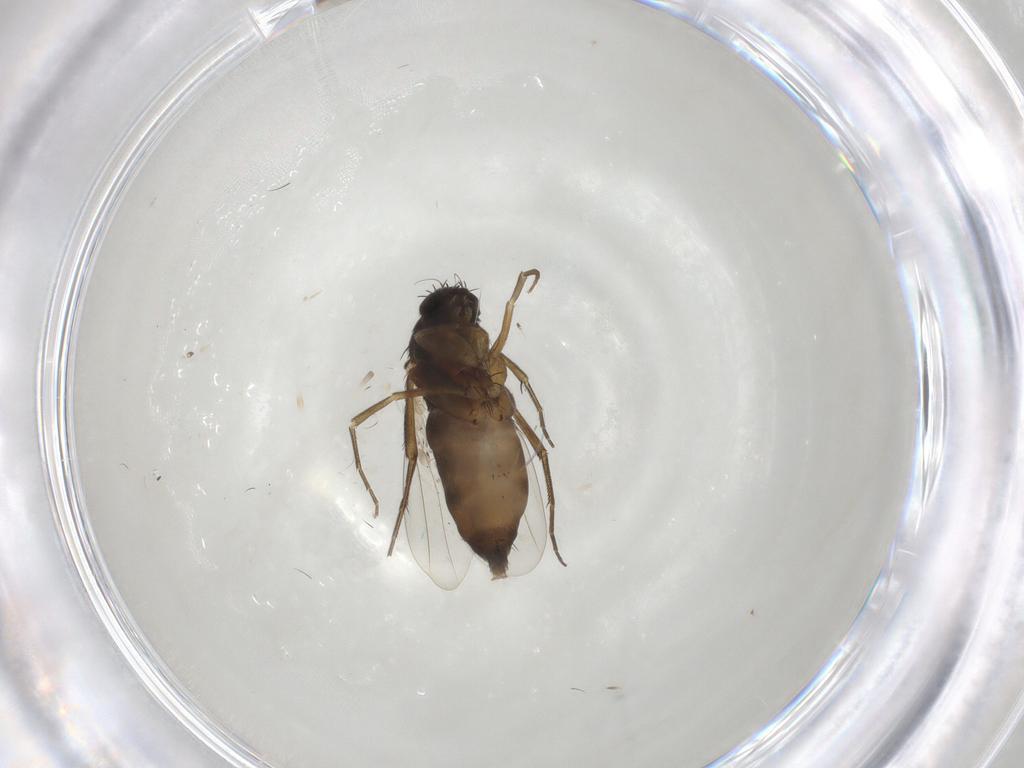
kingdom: Animalia
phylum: Arthropoda
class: Insecta
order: Diptera
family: Phoridae
